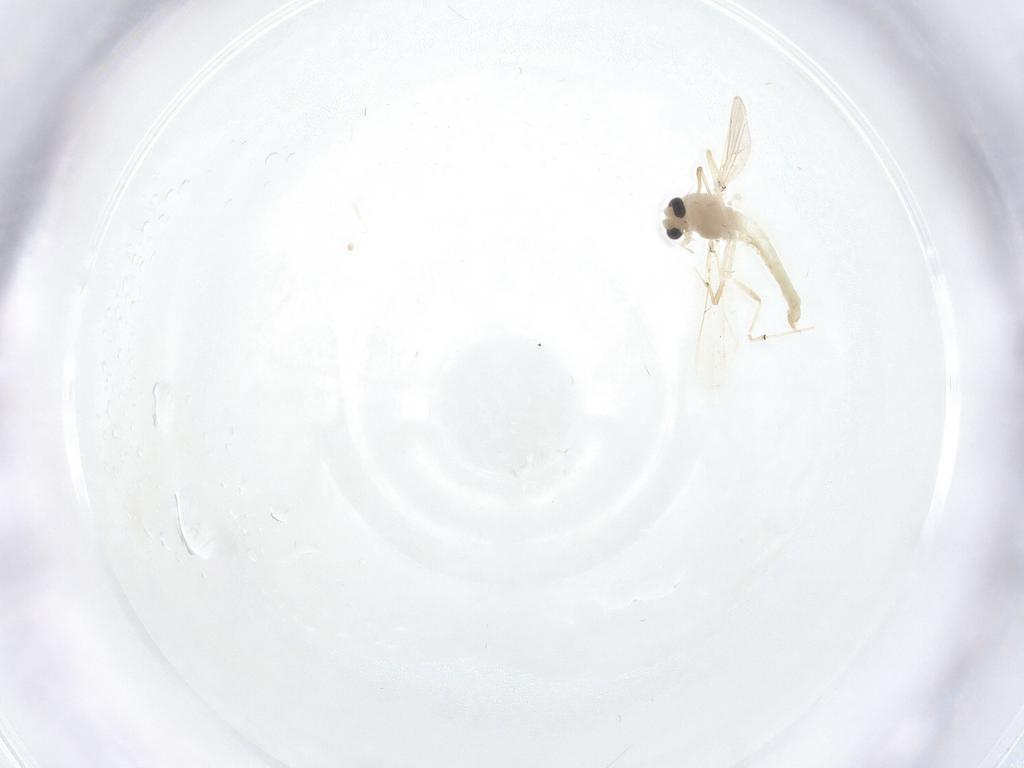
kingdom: Animalia
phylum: Arthropoda
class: Insecta
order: Diptera
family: Chironomidae
